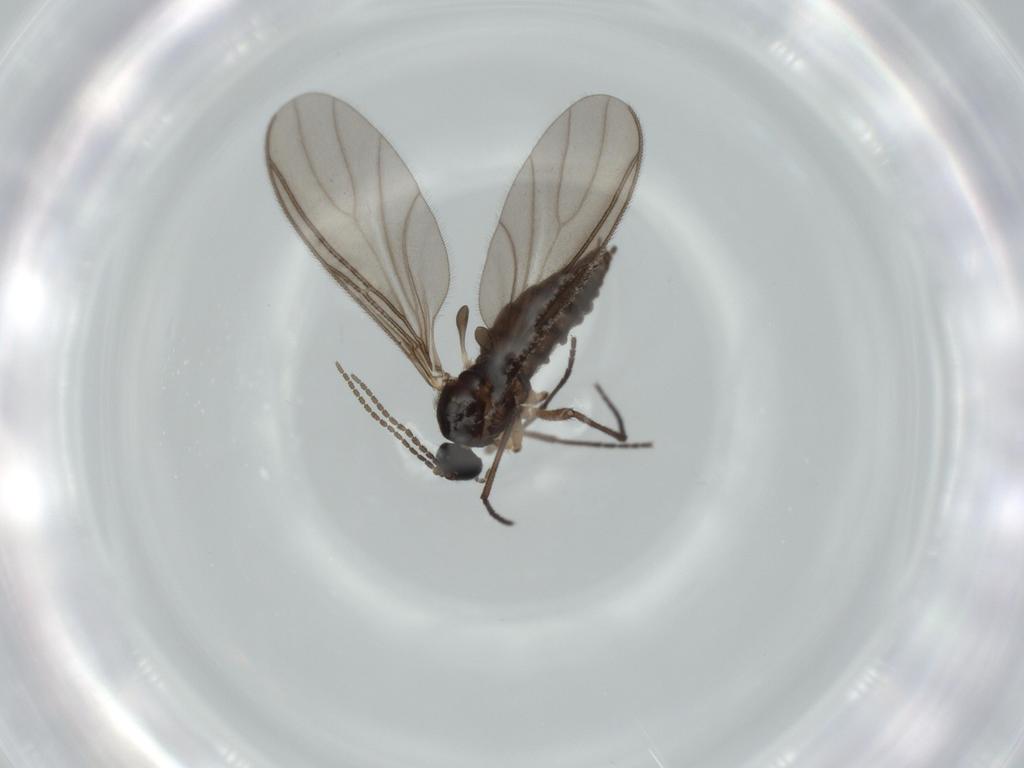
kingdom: Animalia
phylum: Arthropoda
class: Insecta
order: Diptera
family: Sciaridae
